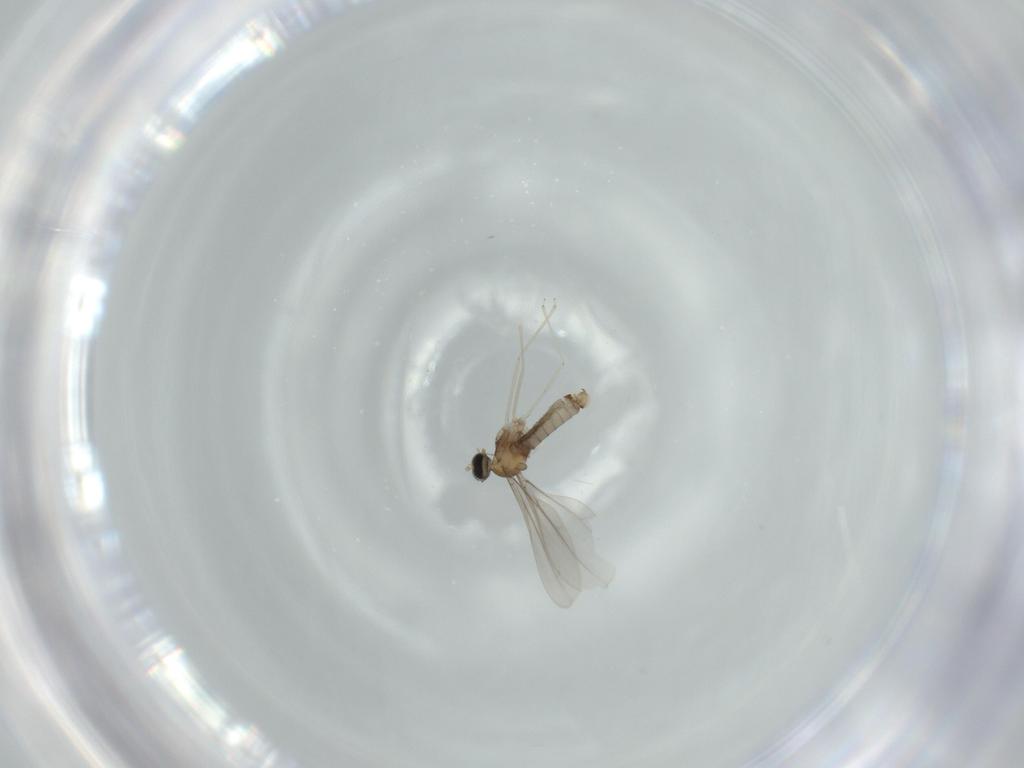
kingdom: Animalia
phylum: Arthropoda
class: Insecta
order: Diptera
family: Cecidomyiidae
